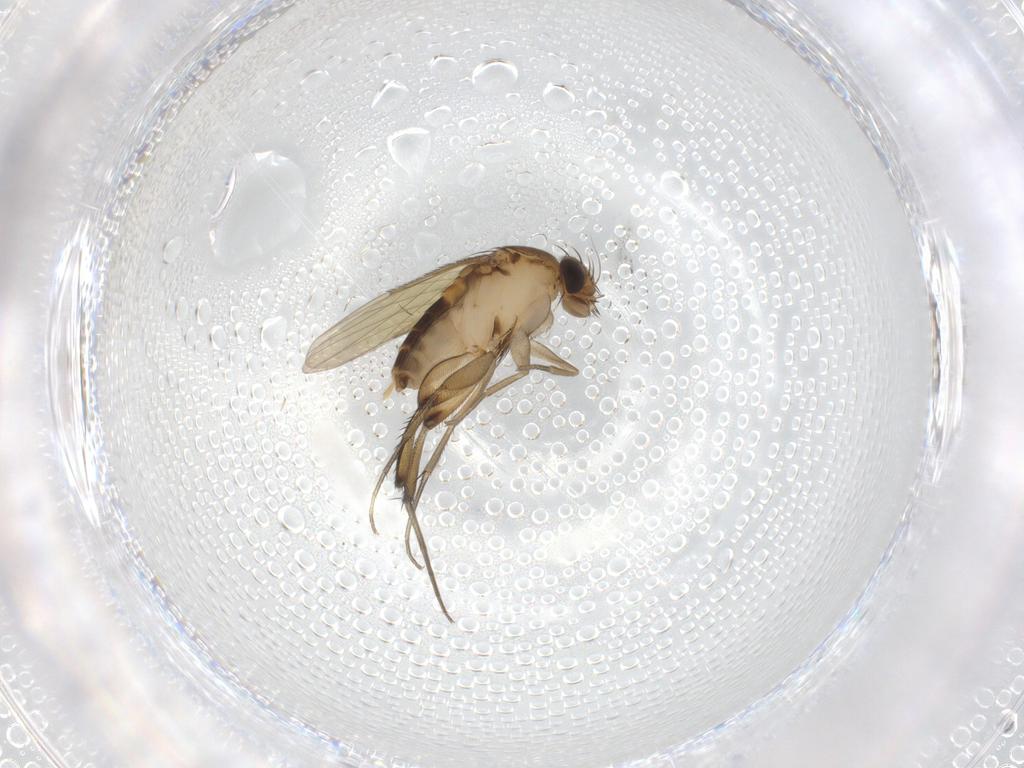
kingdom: Animalia
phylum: Arthropoda
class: Insecta
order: Diptera
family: Phoridae
